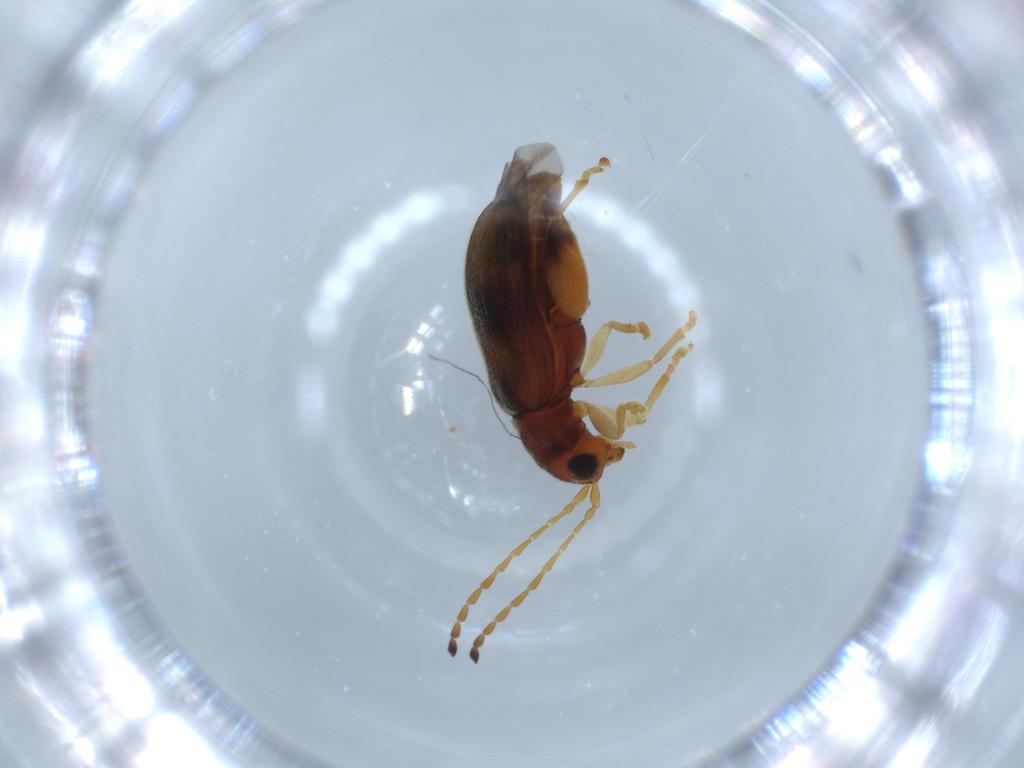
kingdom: Animalia
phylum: Arthropoda
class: Insecta
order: Coleoptera
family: Chrysomelidae
